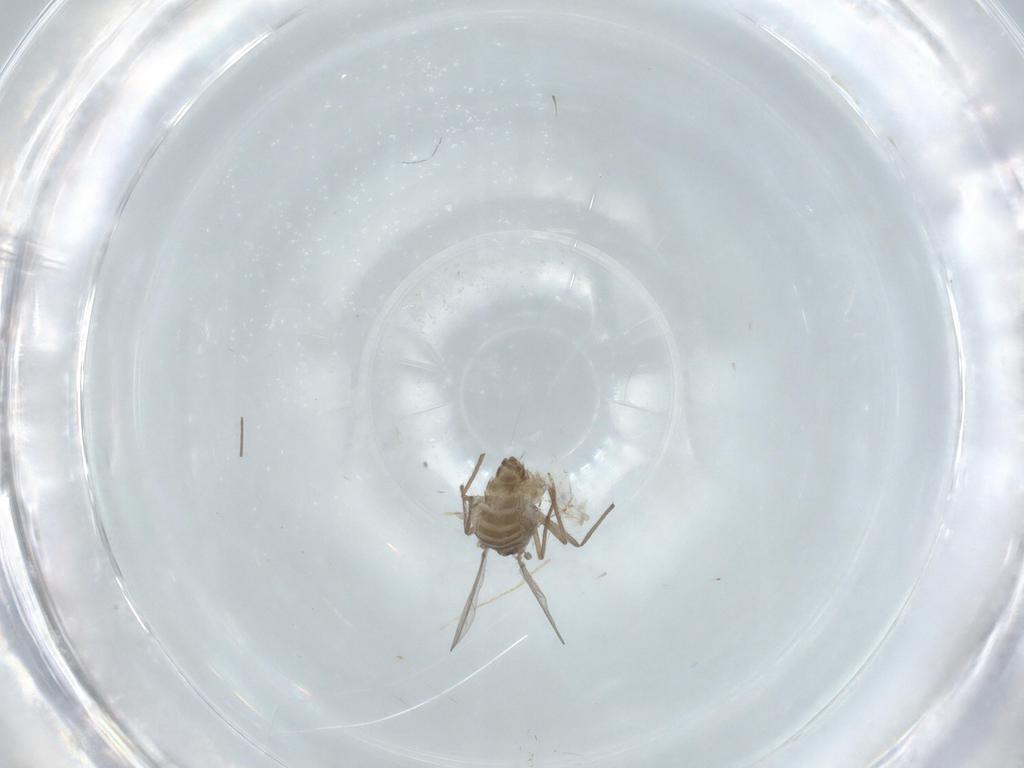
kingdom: Animalia
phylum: Arthropoda
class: Insecta
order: Diptera
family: Chironomidae
